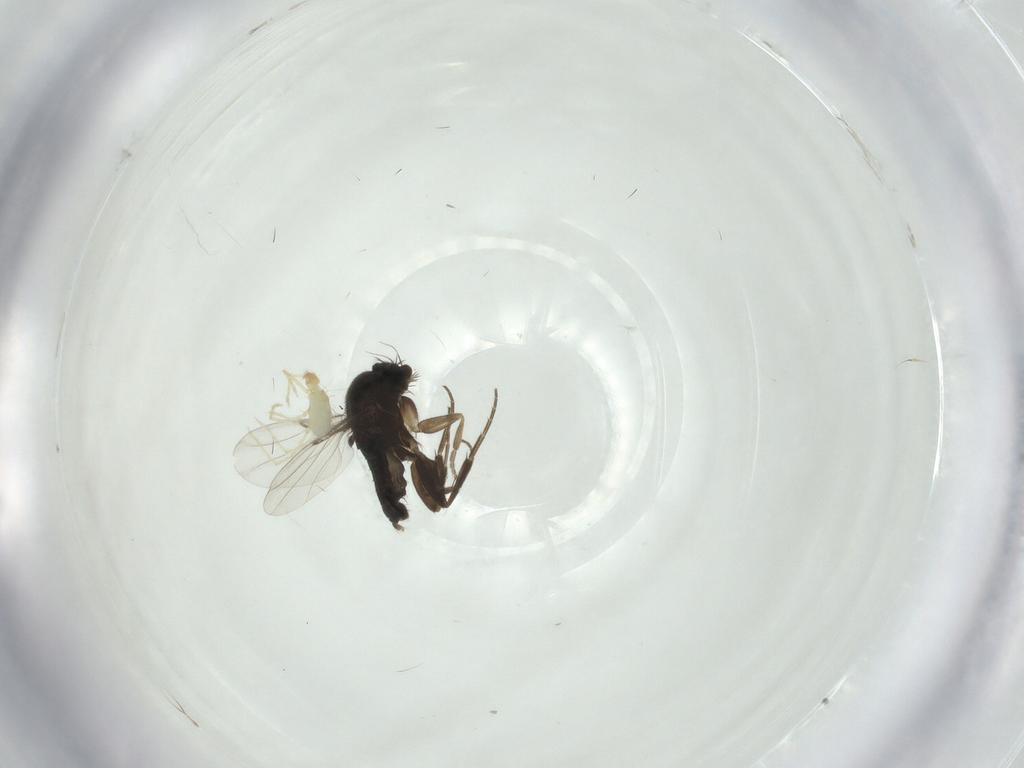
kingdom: Animalia
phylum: Arthropoda
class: Insecta
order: Diptera
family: Phoridae
